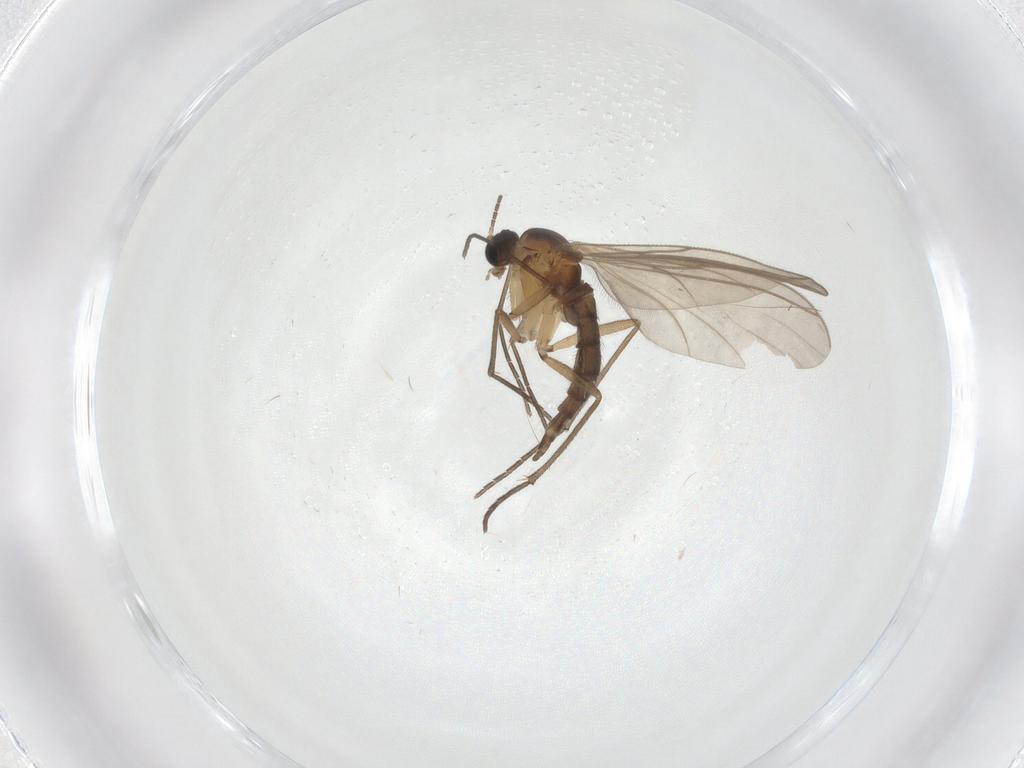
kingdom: Animalia
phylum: Arthropoda
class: Insecta
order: Diptera
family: Sciaridae
